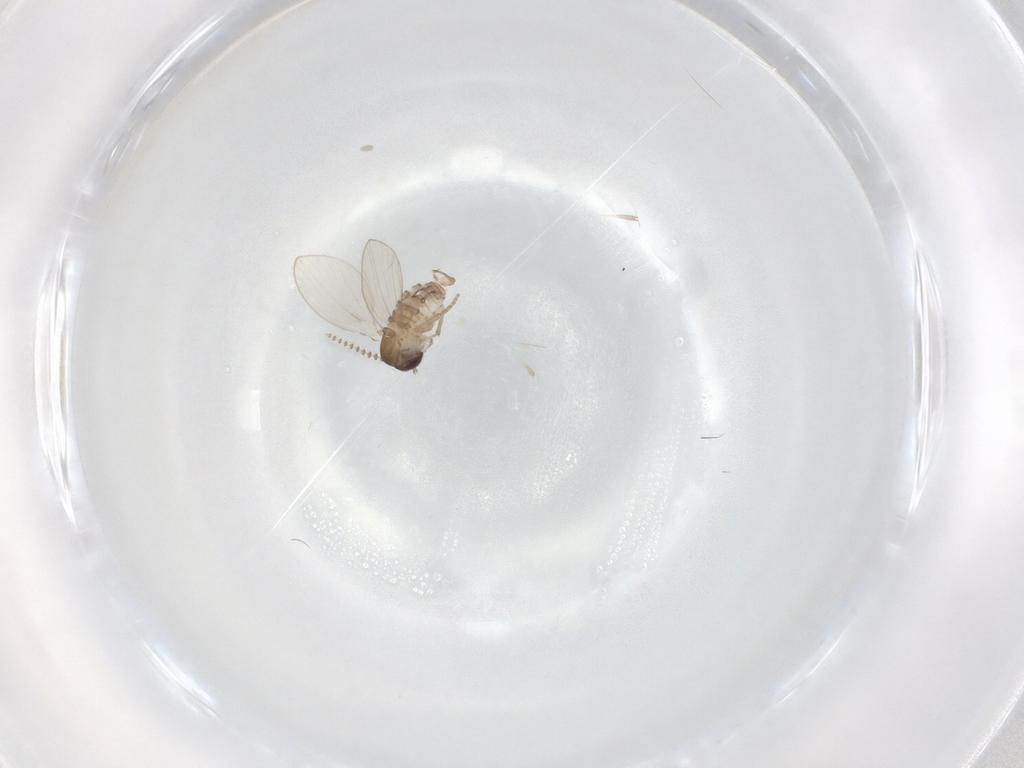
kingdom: Animalia
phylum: Arthropoda
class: Insecta
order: Diptera
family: Psychodidae
